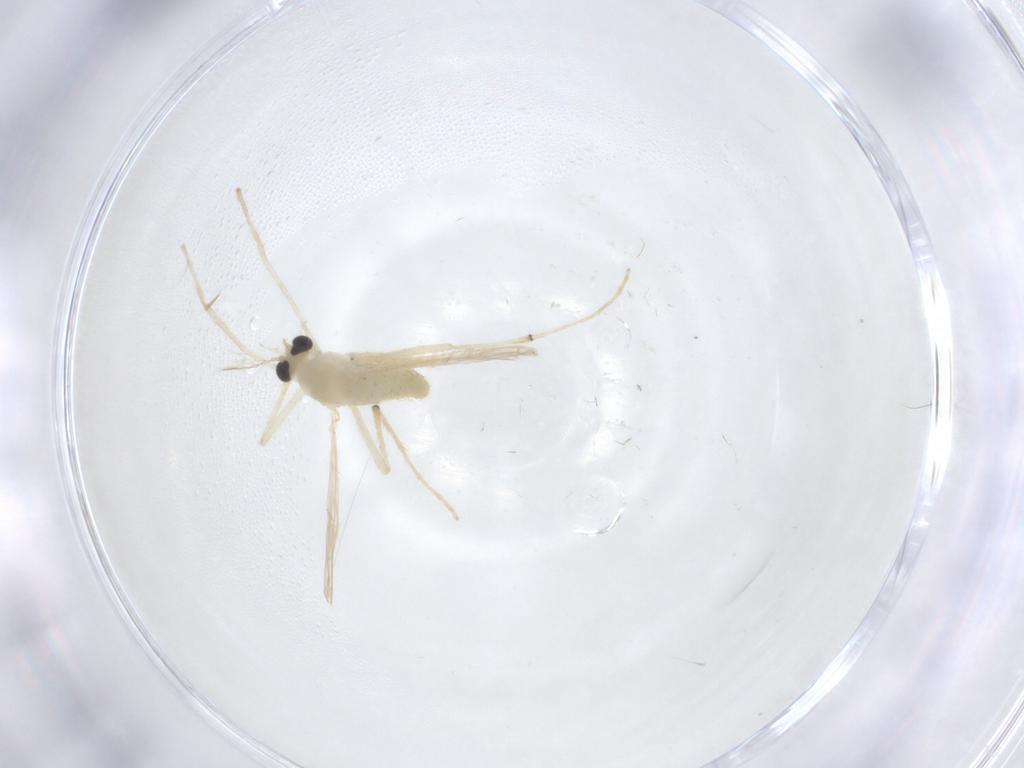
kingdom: Animalia
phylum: Arthropoda
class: Insecta
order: Diptera
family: Chironomidae
